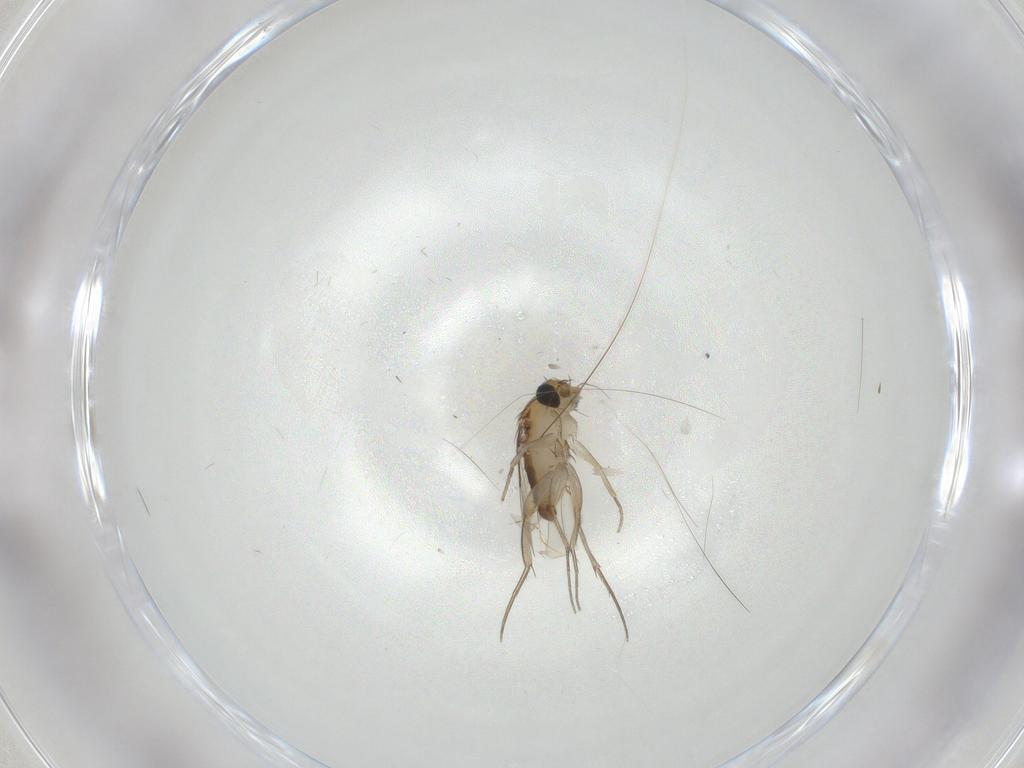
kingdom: Animalia
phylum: Arthropoda
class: Insecta
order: Diptera
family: Phoridae
